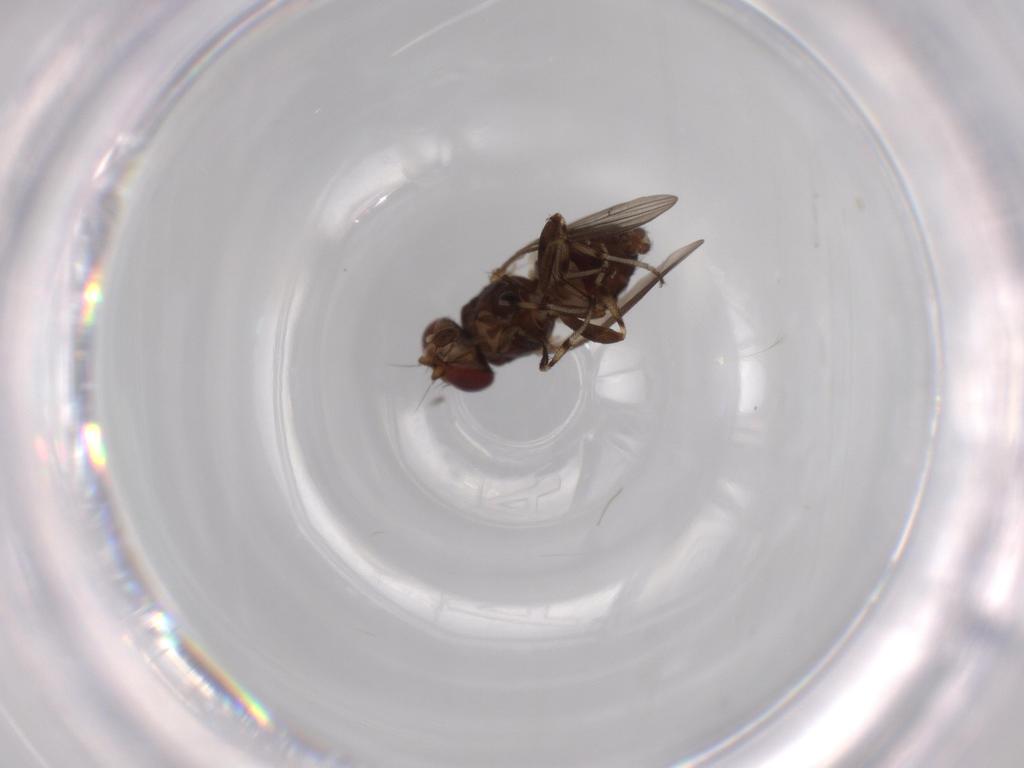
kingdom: Animalia
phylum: Arthropoda
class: Insecta
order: Diptera
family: Heleomyzidae
